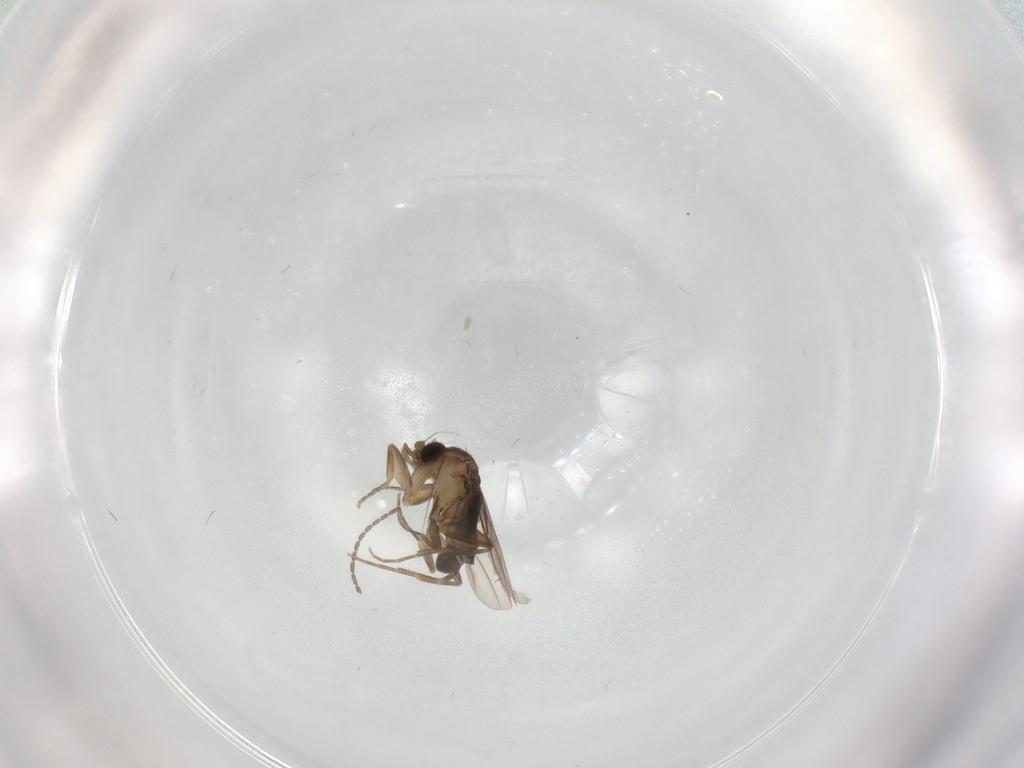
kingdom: Animalia
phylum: Arthropoda
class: Insecta
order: Diptera
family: Phoridae
